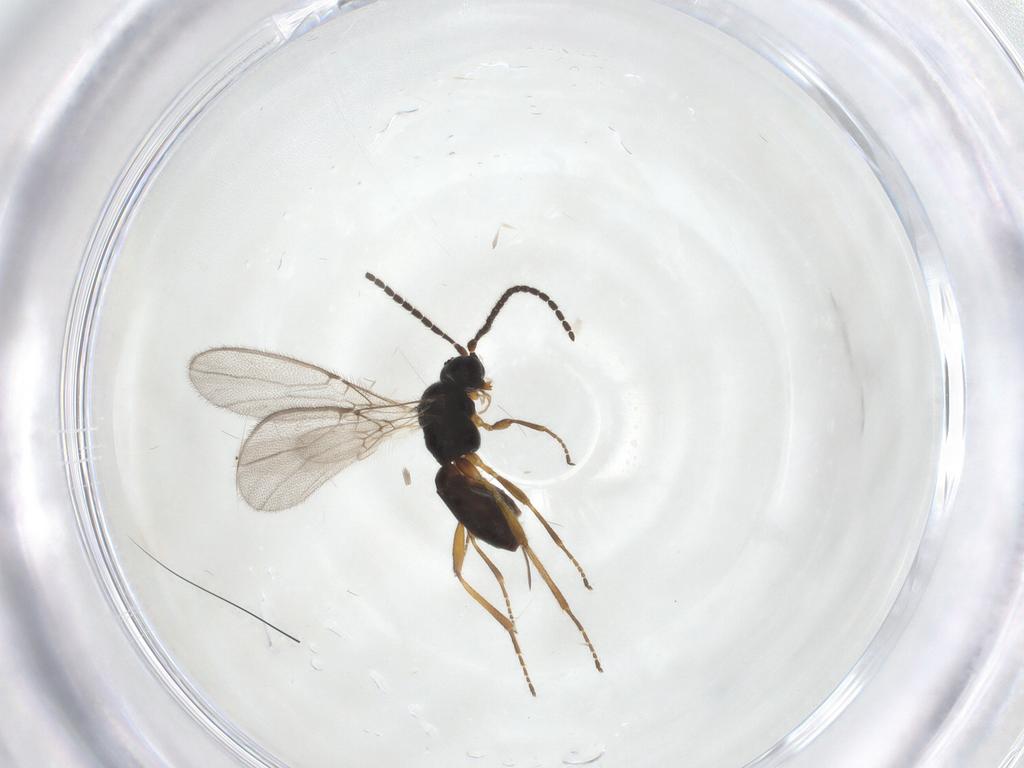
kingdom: Animalia
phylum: Arthropoda
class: Insecta
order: Hymenoptera
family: Braconidae
